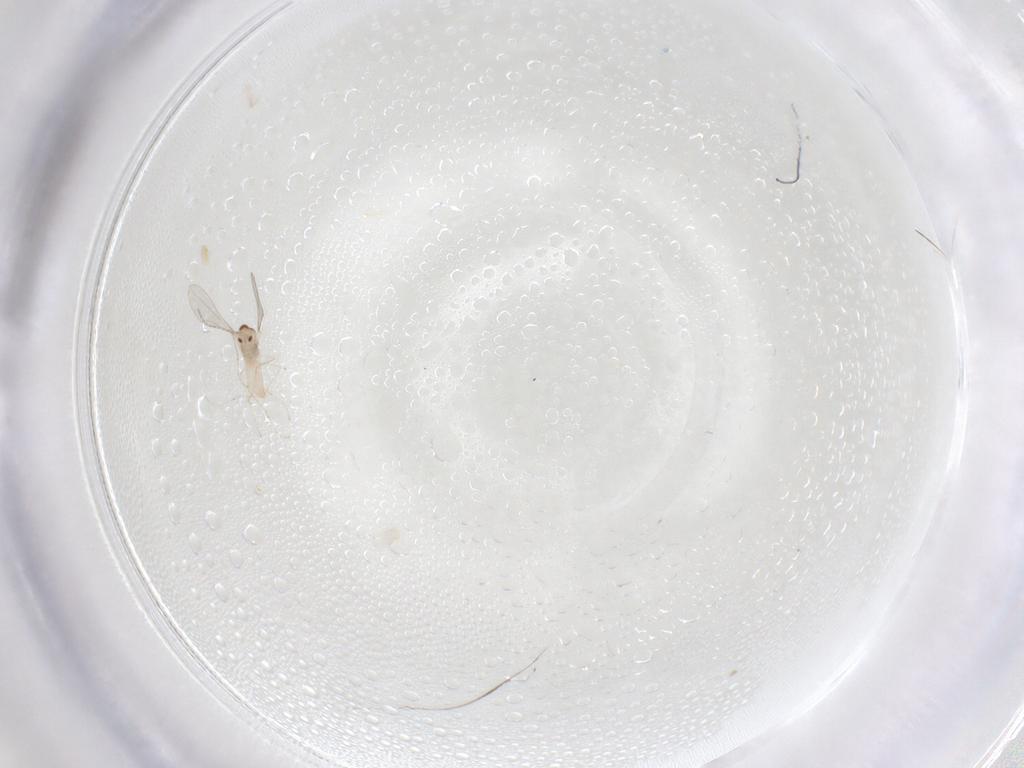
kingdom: Animalia
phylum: Arthropoda
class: Insecta
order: Diptera
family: Cecidomyiidae
